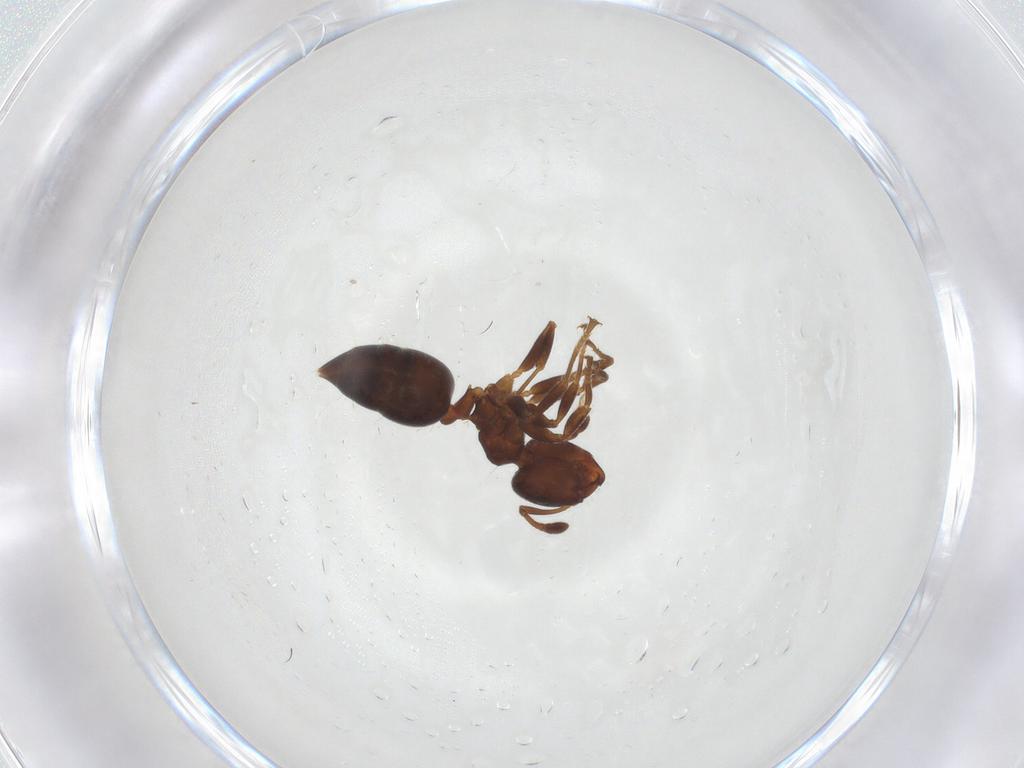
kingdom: Animalia
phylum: Arthropoda
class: Insecta
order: Hymenoptera
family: Formicidae
